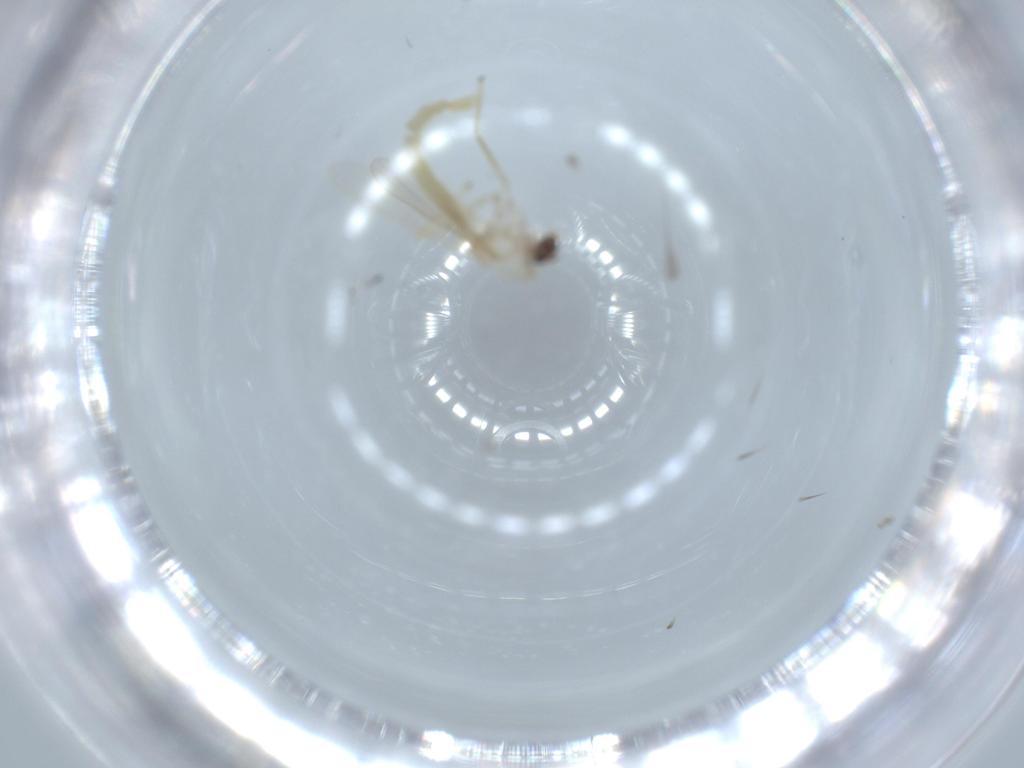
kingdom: Animalia
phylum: Arthropoda
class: Insecta
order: Diptera
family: Chironomidae
